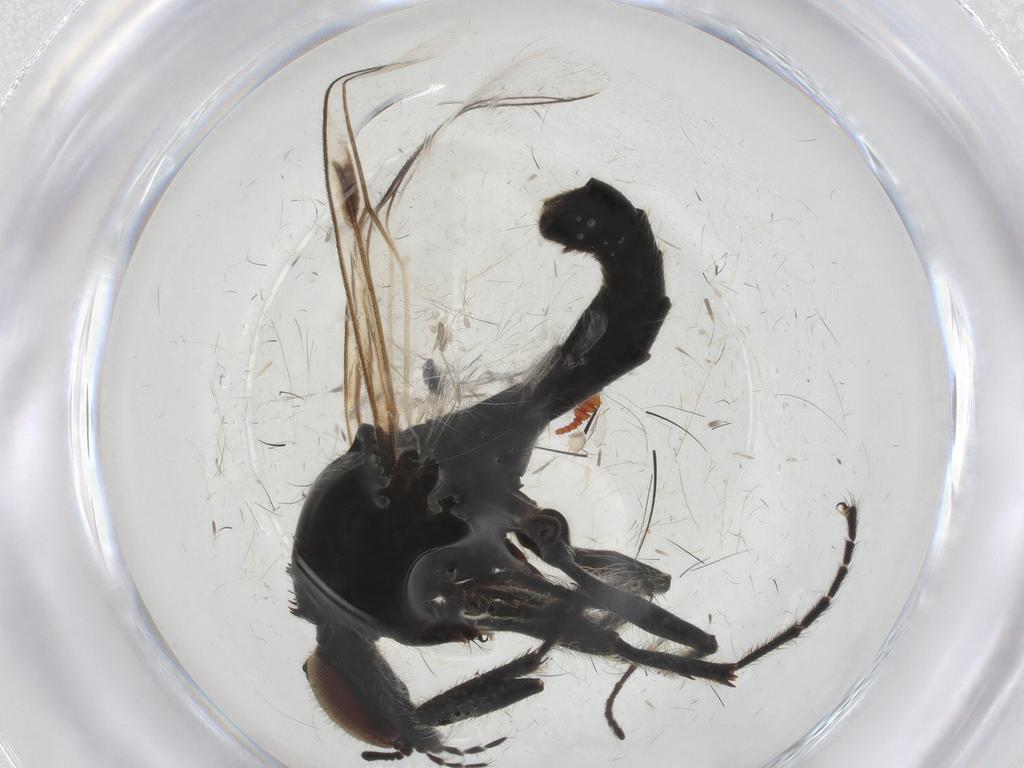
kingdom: Animalia
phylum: Arthropoda
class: Insecta
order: Diptera
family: Bibionidae
